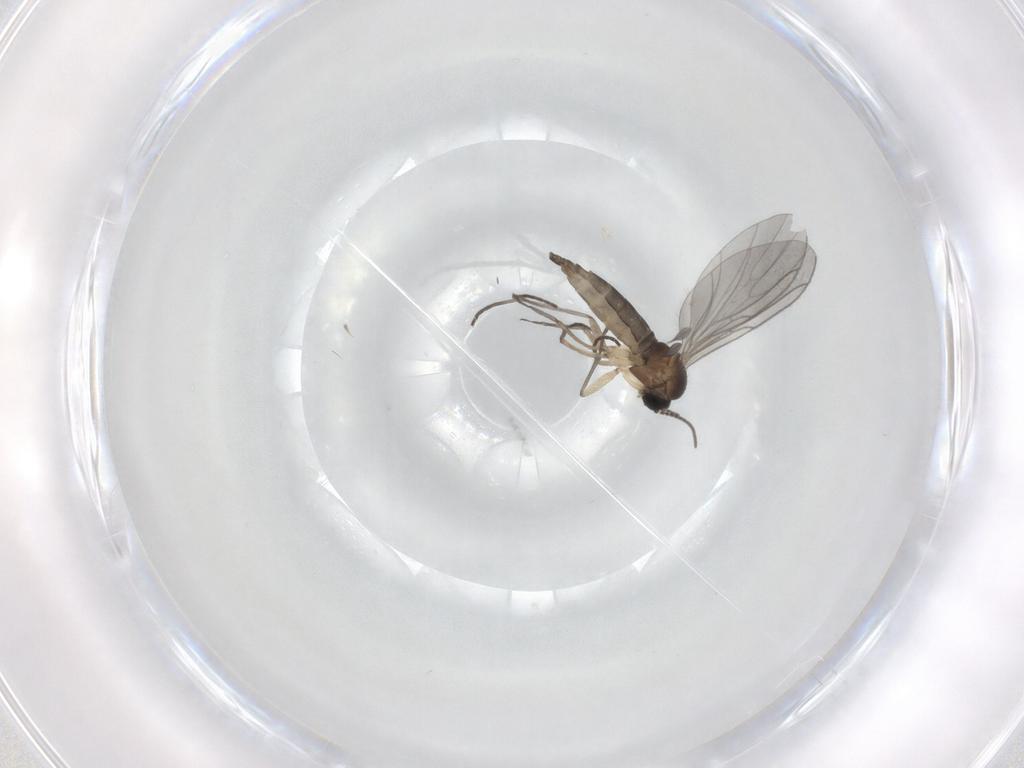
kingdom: Animalia
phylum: Arthropoda
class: Insecta
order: Diptera
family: Sciaridae
